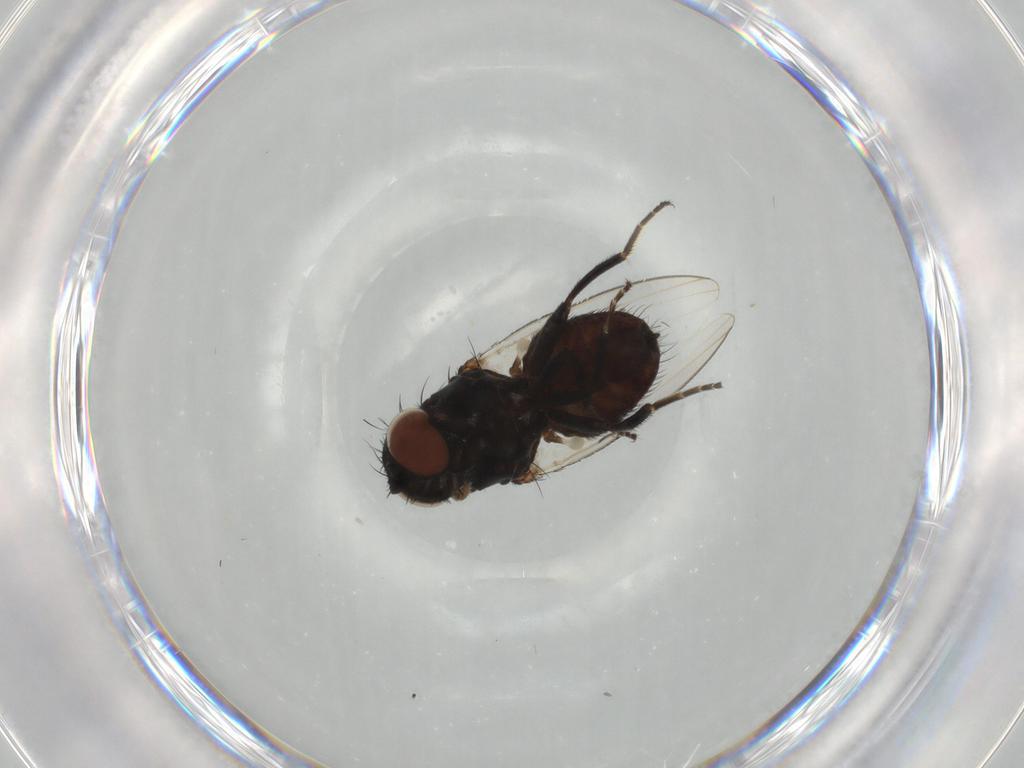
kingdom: Animalia
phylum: Arthropoda
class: Insecta
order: Diptera
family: Milichiidae
